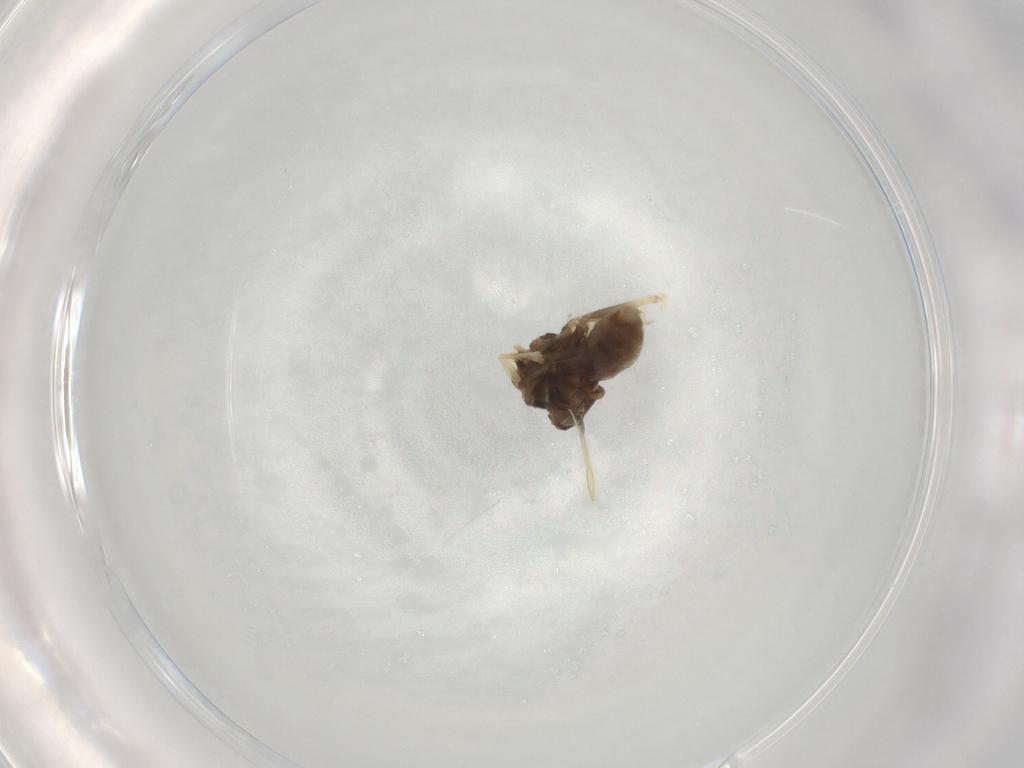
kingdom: Animalia
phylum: Arthropoda
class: Insecta
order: Diptera
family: Chironomidae
